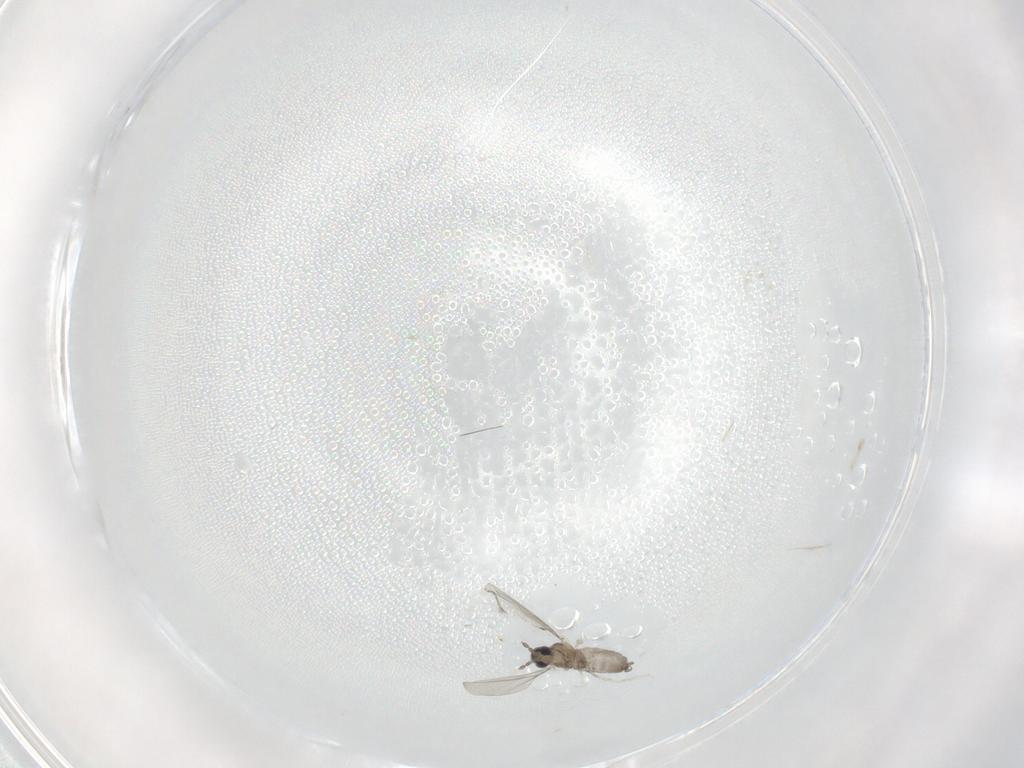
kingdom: Animalia
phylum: Arthropoda
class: Insecta
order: Diptera
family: Cecidomyiidae
